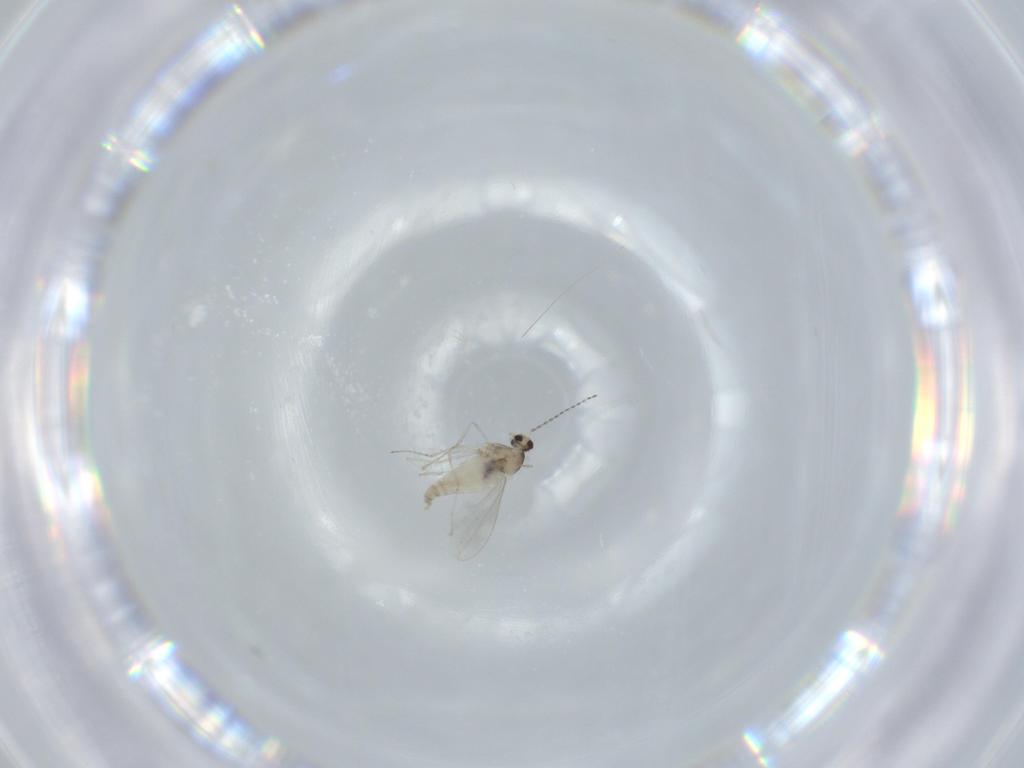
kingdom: Animalia
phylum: Arthropoda
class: Insecta
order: Diptera
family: Cecidomyiidae
